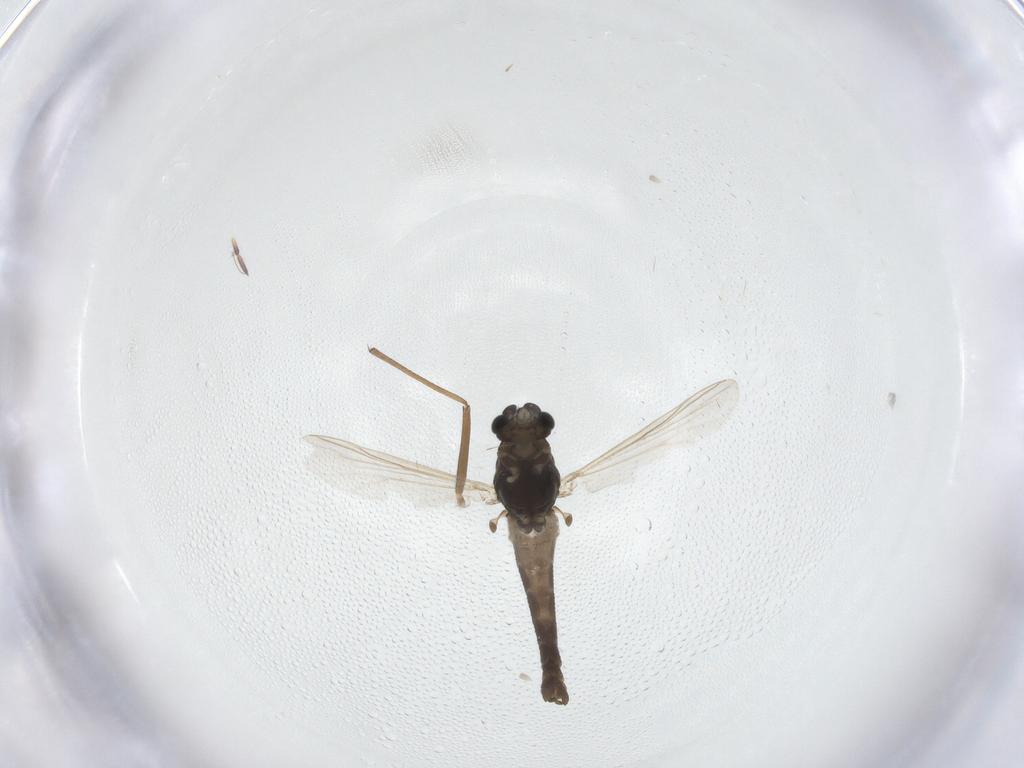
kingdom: Animalia
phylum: Arthropoda
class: Insecta
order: Diptera
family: Chironomidae
